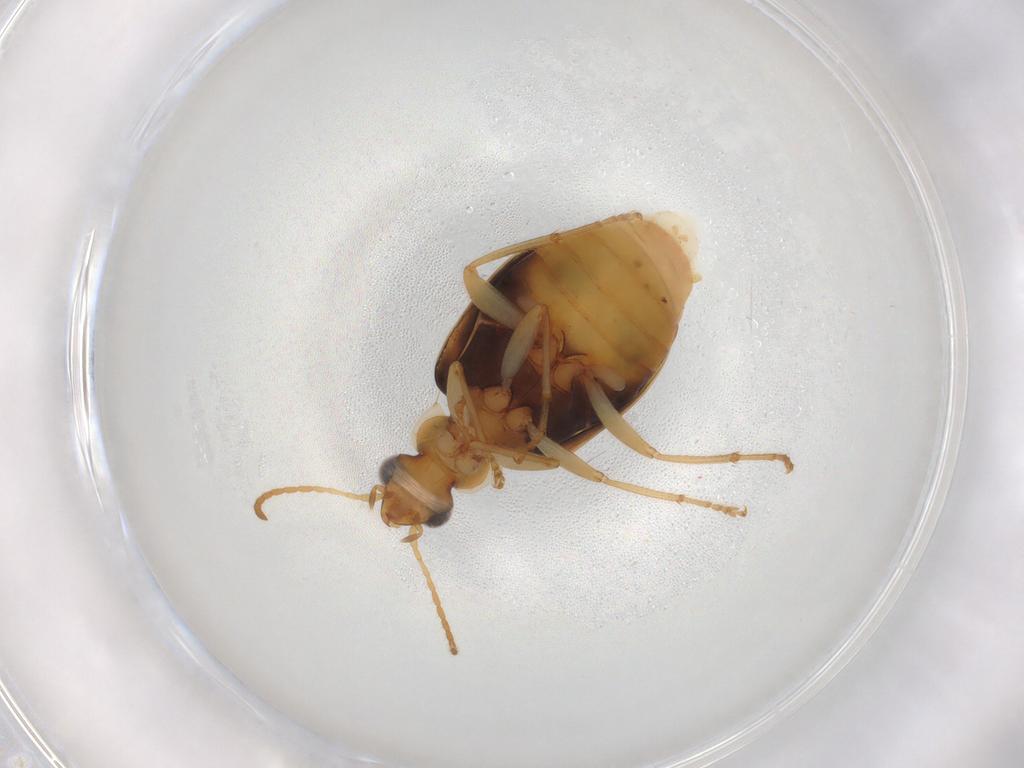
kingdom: Animalia
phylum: Arthropoda
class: Insecta
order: Coleoptera
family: Carabidae
